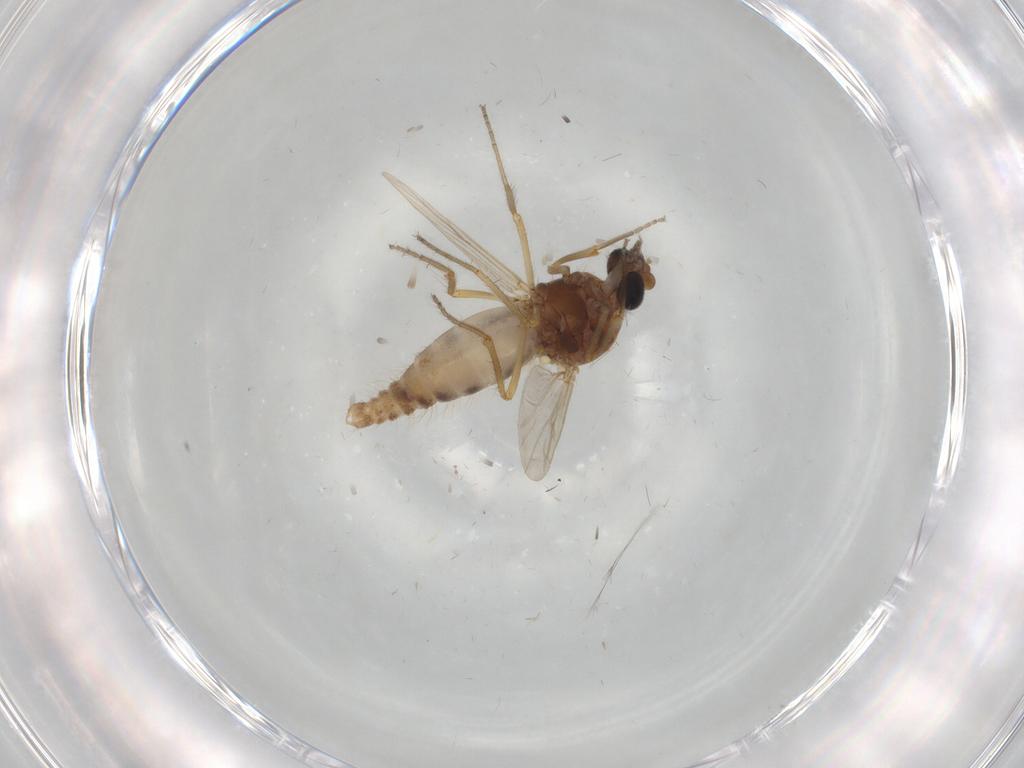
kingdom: Animalia
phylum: Arthropoda
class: Insecta
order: Diptera
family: Ceratopogonidae
